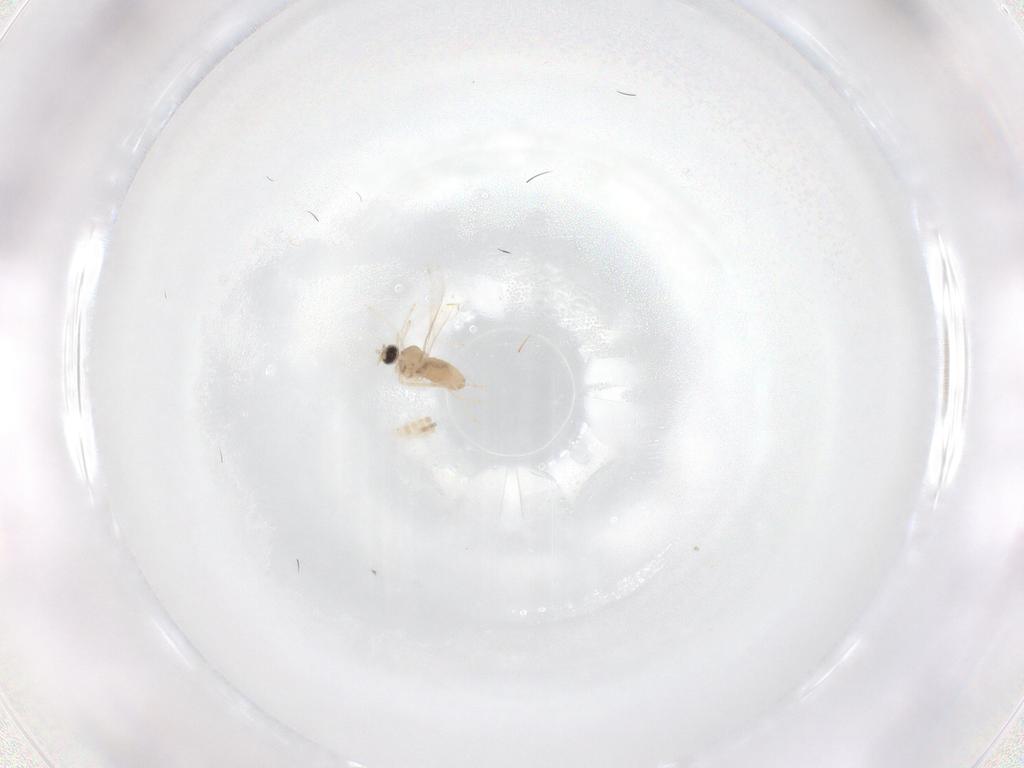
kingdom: Animalia
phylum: Arthropoda
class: Insecta
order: Diptera
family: Cecidomyiidae
